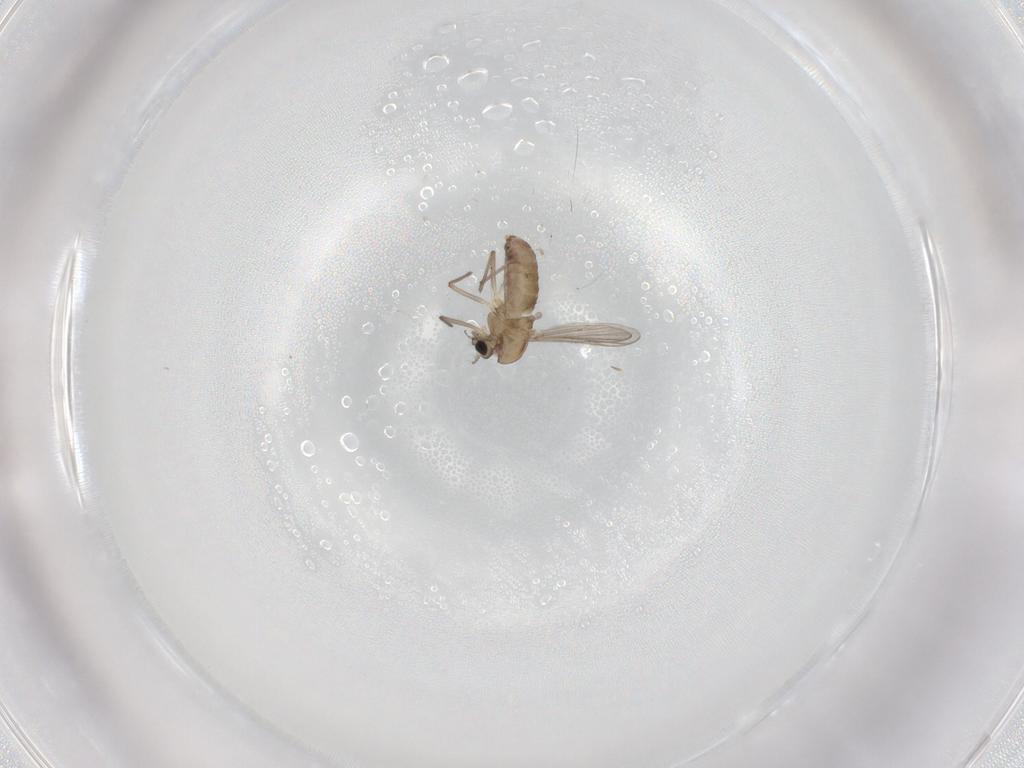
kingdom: Animalia
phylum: Arthropoda
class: Insecta
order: Diptera
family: Chironomidae
